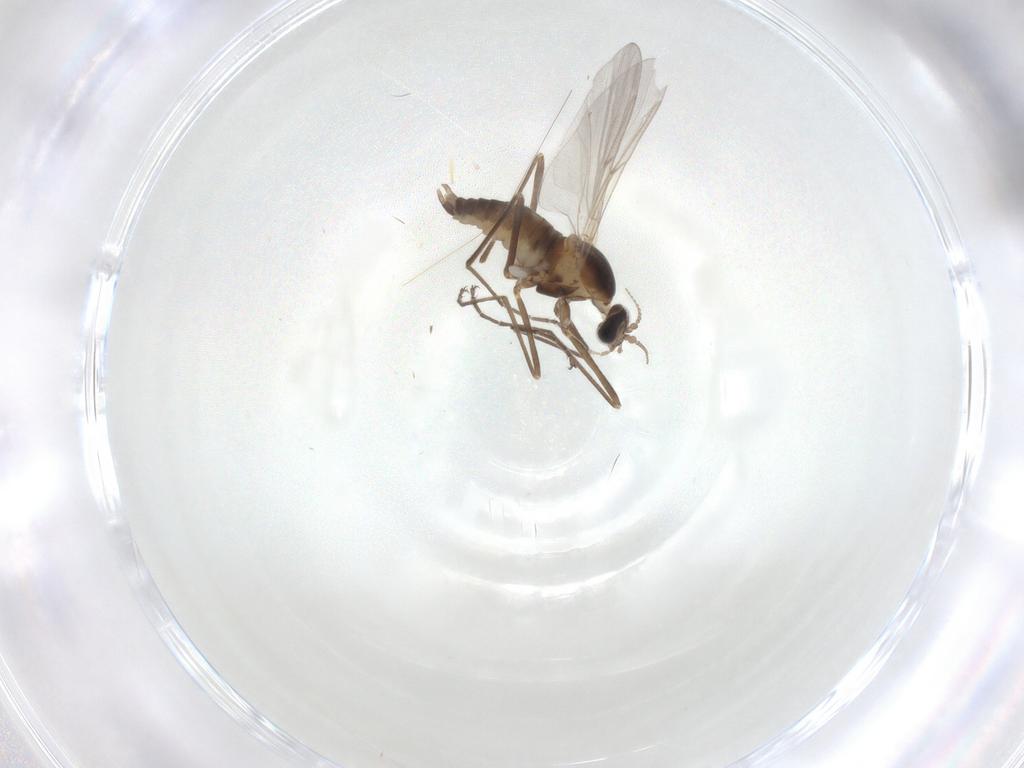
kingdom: Animalia
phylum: Arthropoda
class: Insecta
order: Diptera
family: Cecidomyiidae
